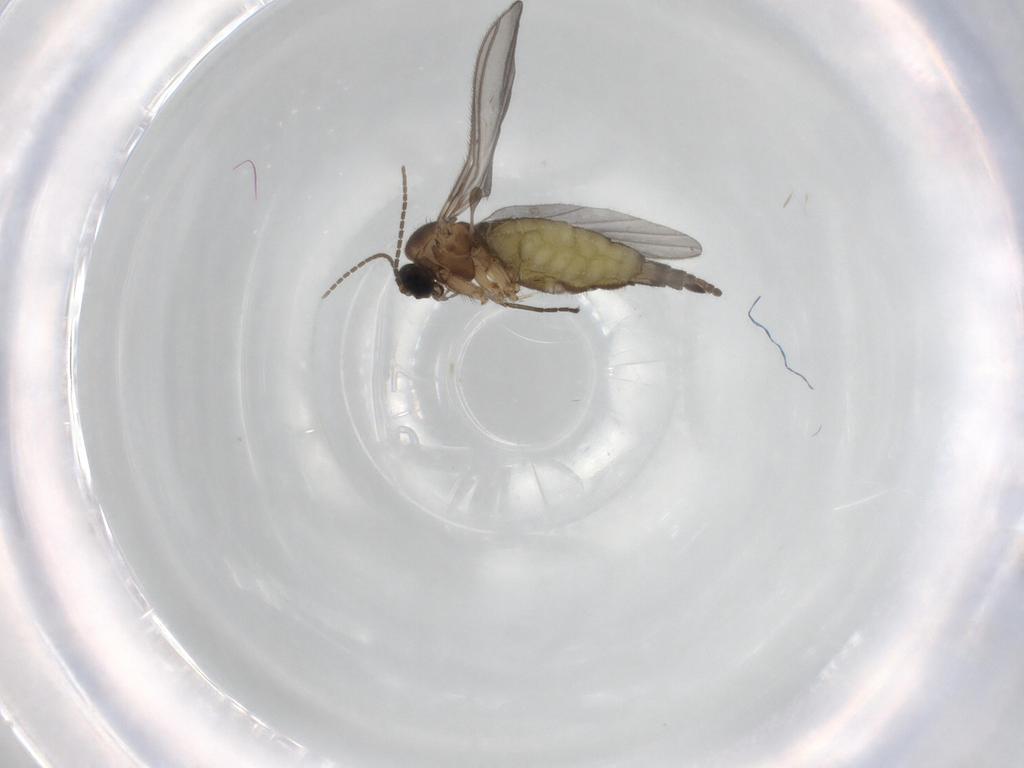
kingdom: Animalia
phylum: Arthropoda
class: Insecta
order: Diptera
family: Sciaridae
